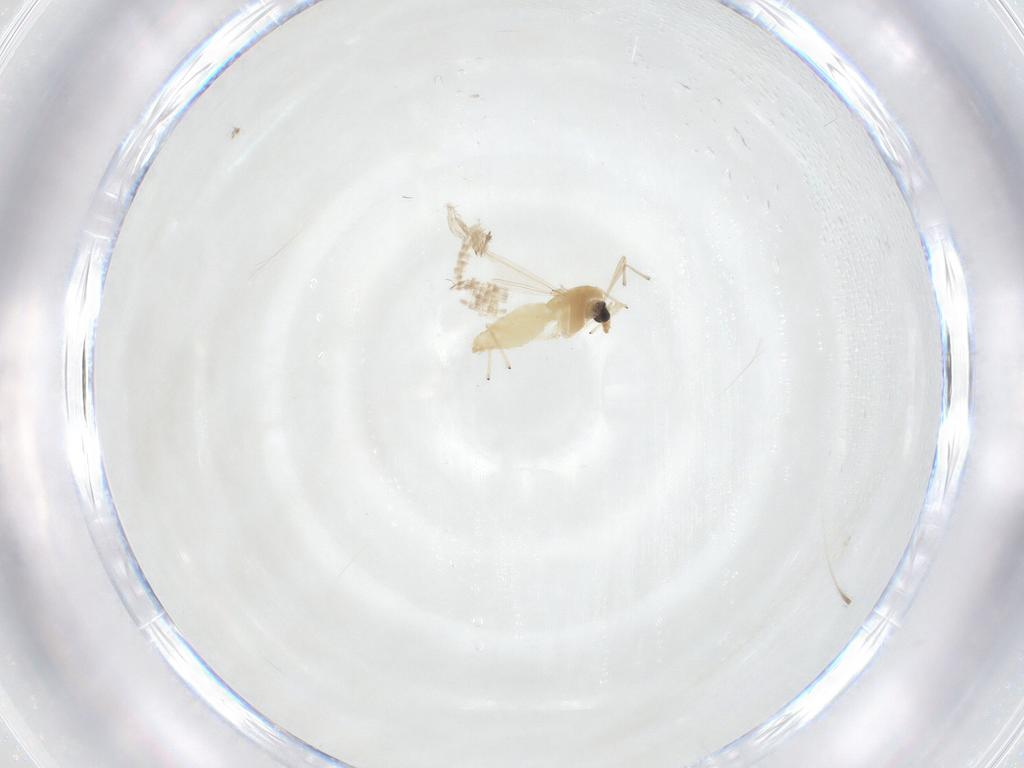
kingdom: Animalia
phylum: Arthropoda
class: Insecta
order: Diptera
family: Chironomidae
